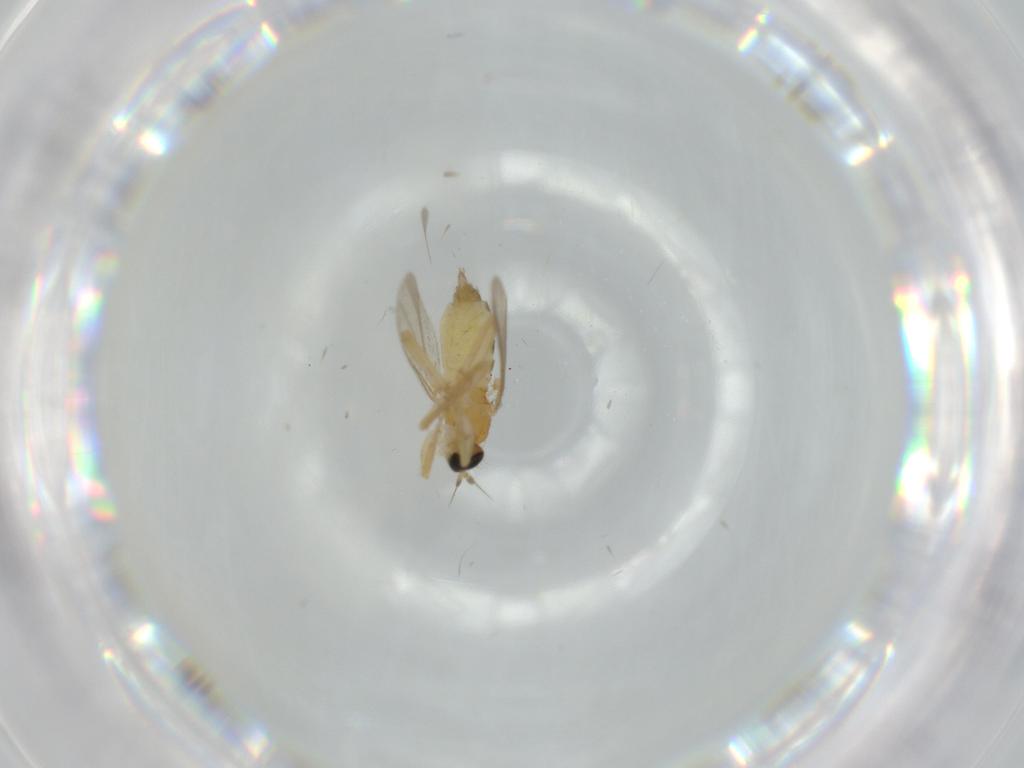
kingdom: Animalia
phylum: Arthropoda
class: Insecta
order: Diptera
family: Hybotidae
